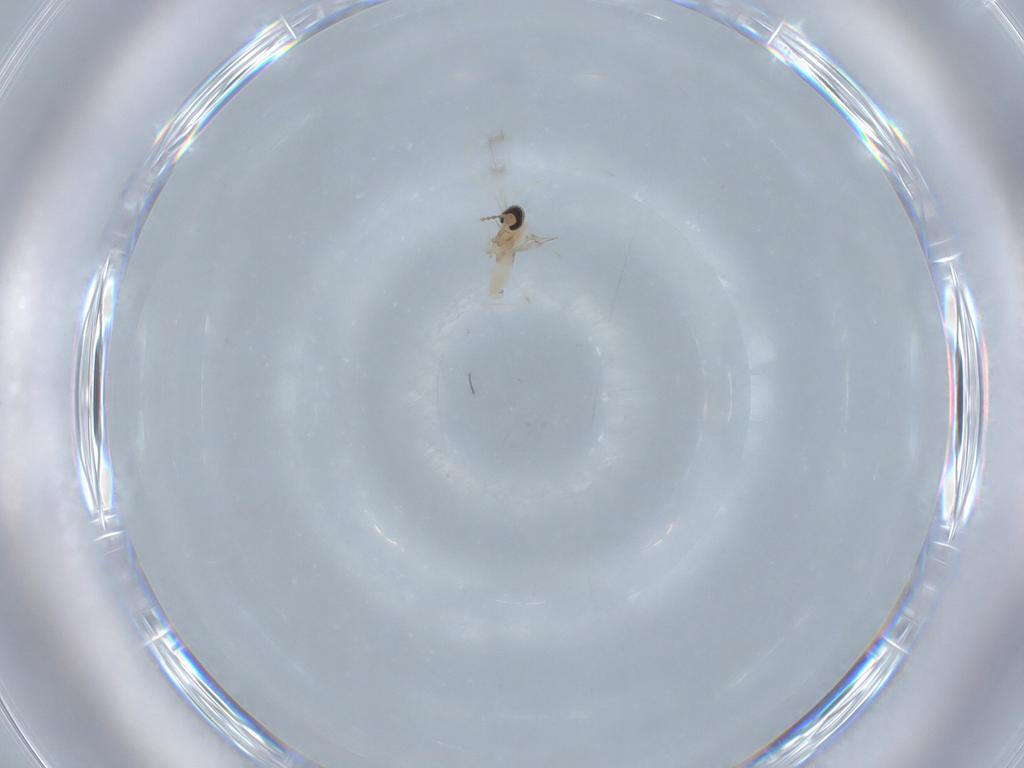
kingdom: Animalia
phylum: Arthropoda
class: Insecta
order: Diptera
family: Cecidomyiidae
